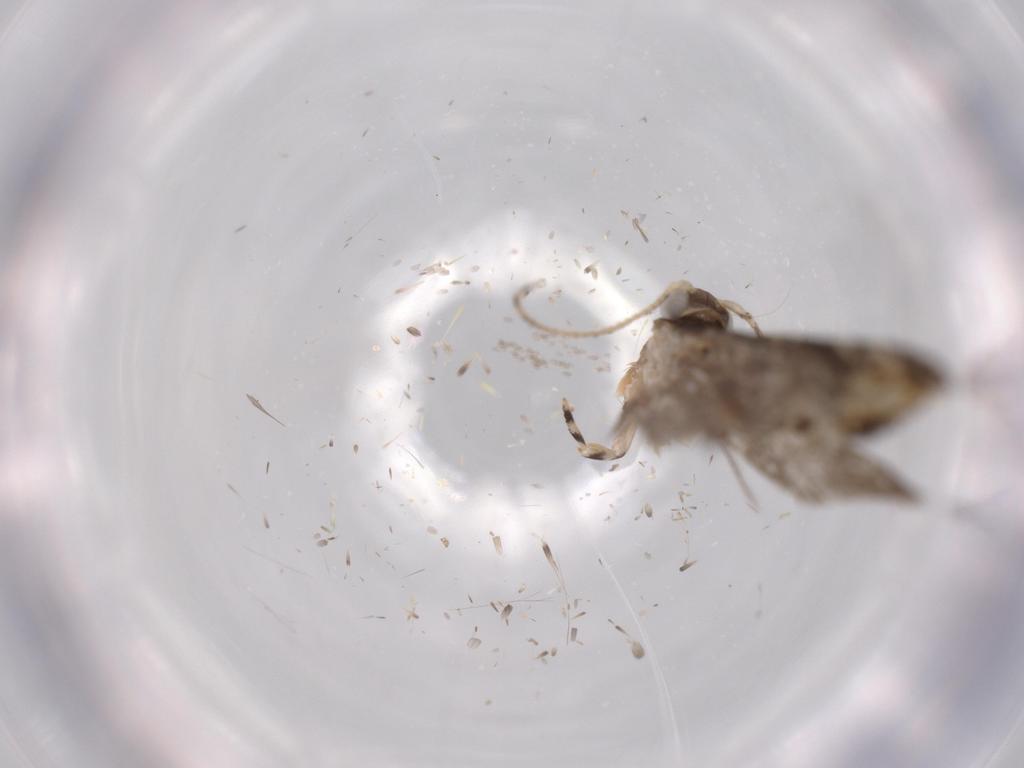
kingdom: Animalia
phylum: Arthropoda
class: Insecta
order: Lepidoptera
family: Tineidae
